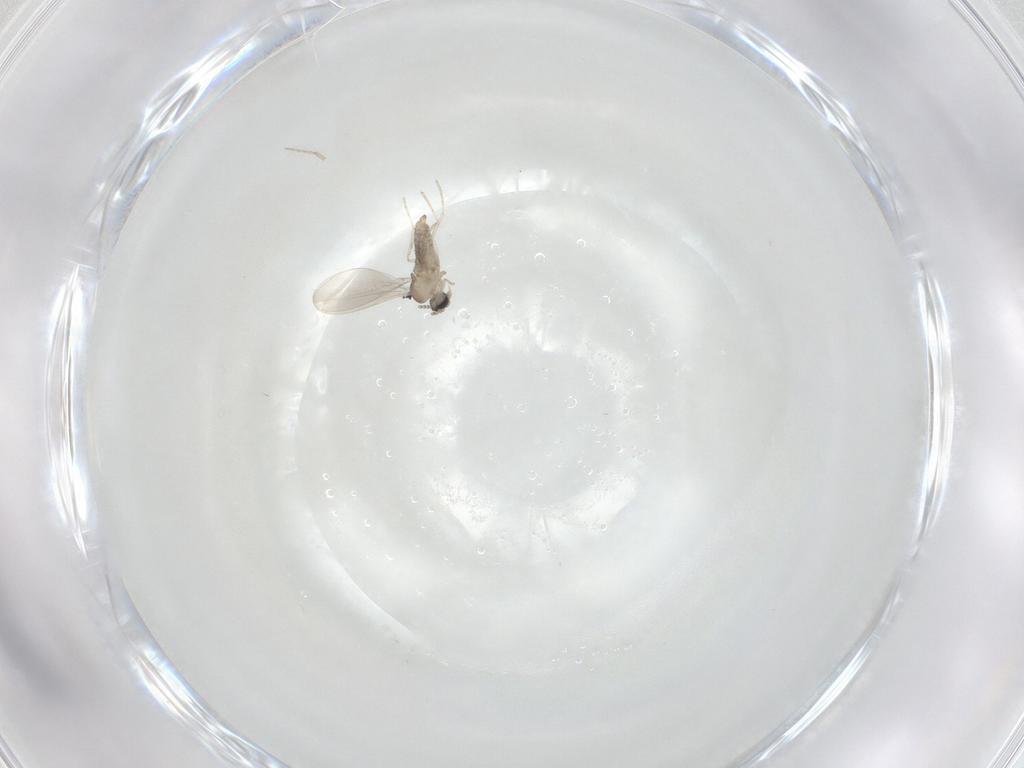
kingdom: Animalia
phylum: Arthropoda
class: Insecta
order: Diptera
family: Cecidomyiidae
